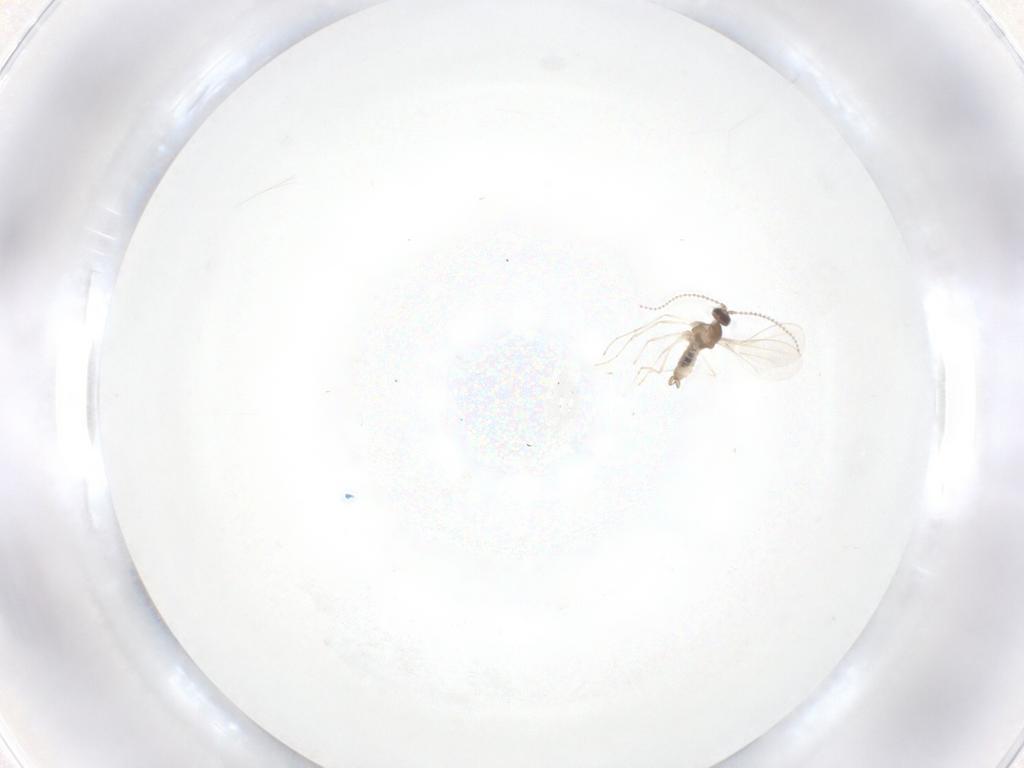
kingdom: Animalia
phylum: Arthropoda
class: Insecta
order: Diptera
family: Cecidomyiidae
